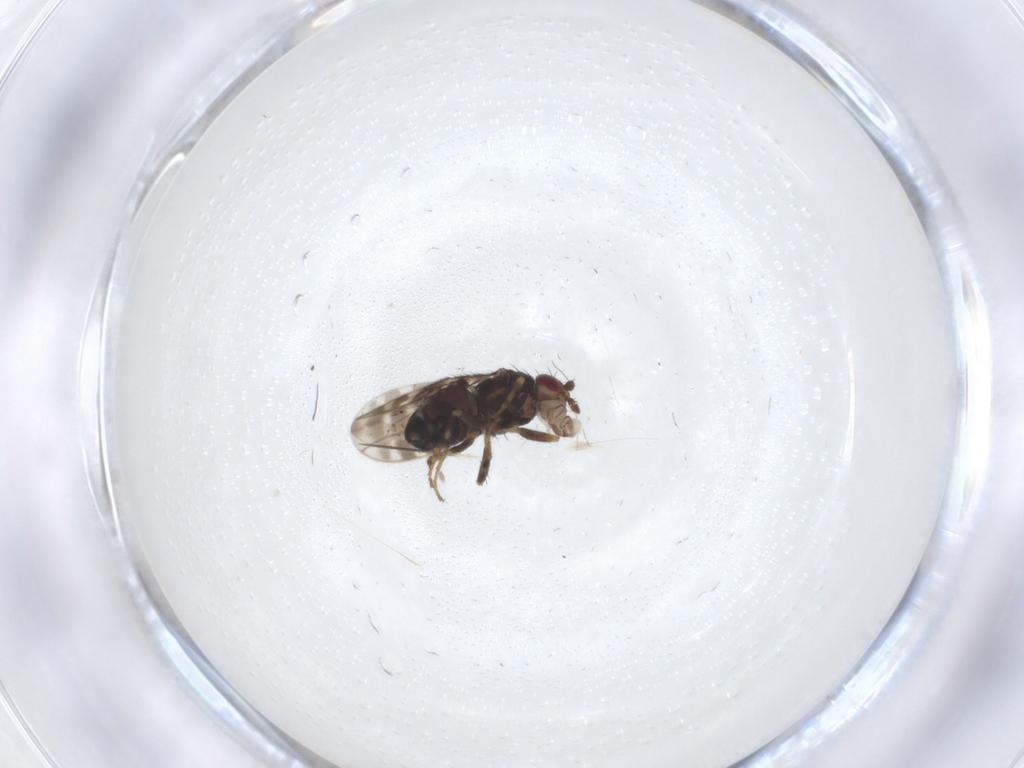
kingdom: Animalia
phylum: Arthropoda
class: Insecta
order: Diptera
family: Sphaeroceridae
